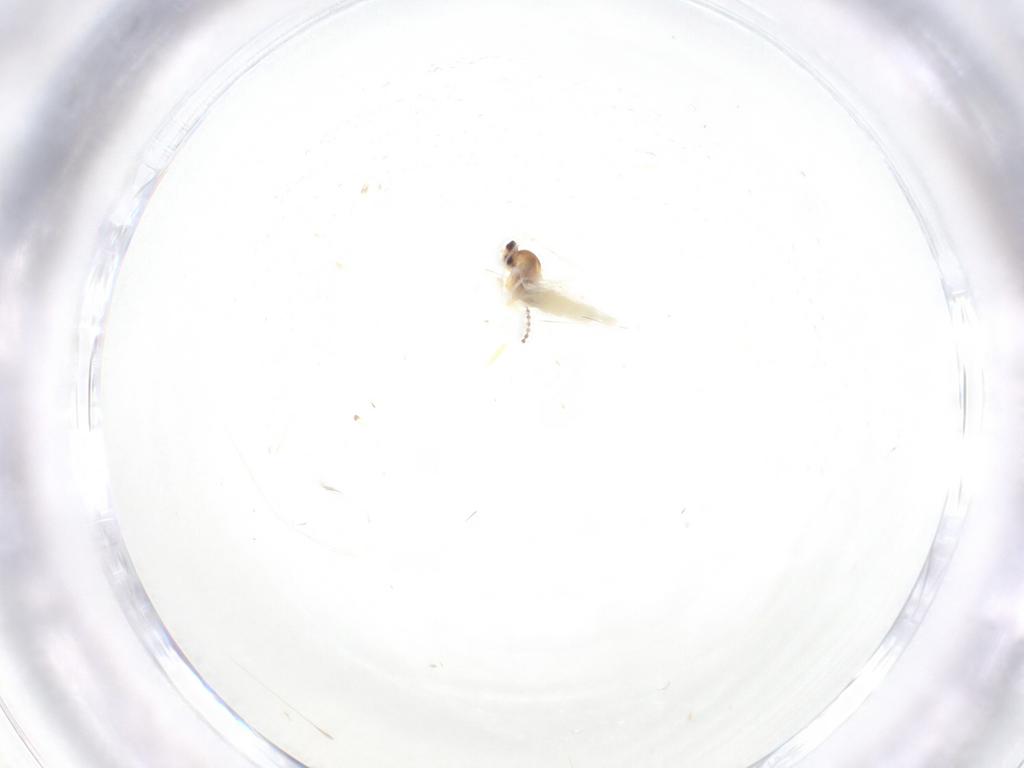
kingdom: Animalia
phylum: Arthropoda
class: Insecta
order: Diptera
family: Cecidomyiidae
